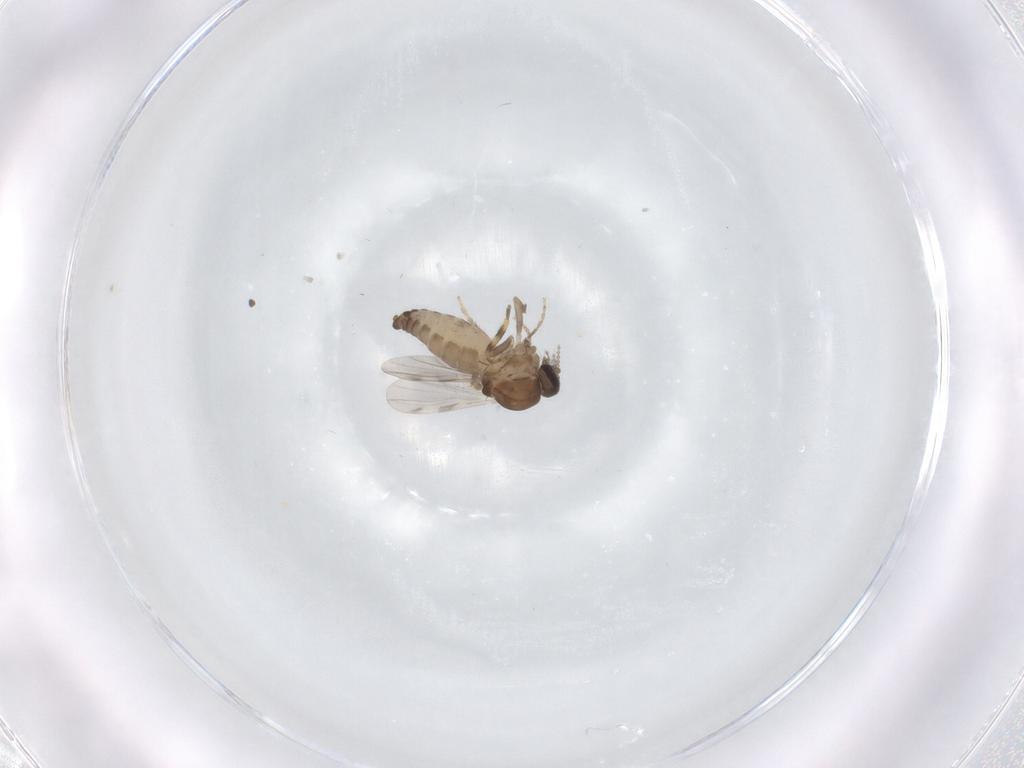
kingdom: Animalia
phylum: Arthropoda
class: Insecta
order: Diptera
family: Ceratopogonidae
